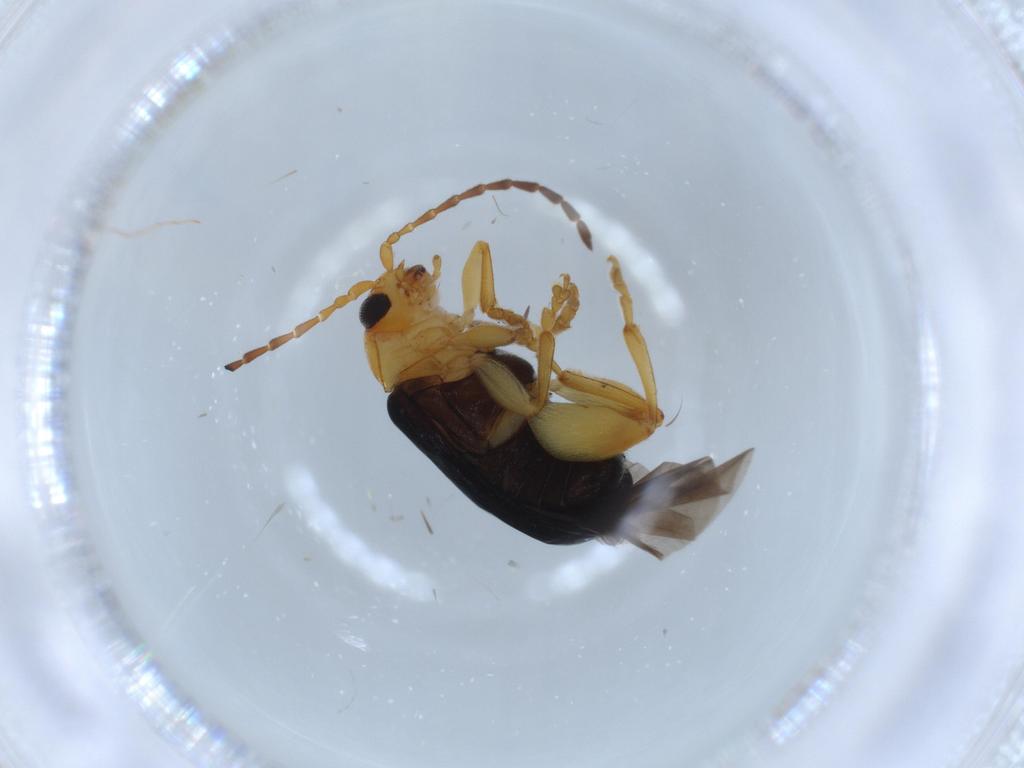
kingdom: Animalia
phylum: Arthropoda
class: Insecta
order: Coleoptera
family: Chrysomelidae
